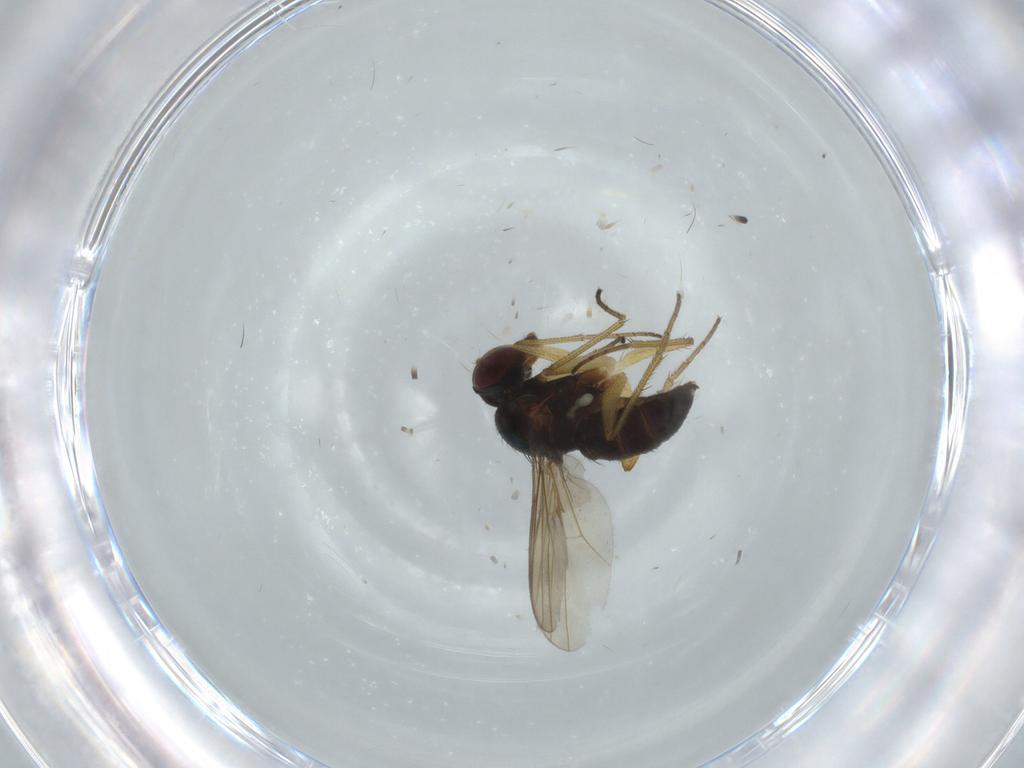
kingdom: Animalia
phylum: Arthropoda
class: Insecta
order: Diptera
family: Dolichopodidae
